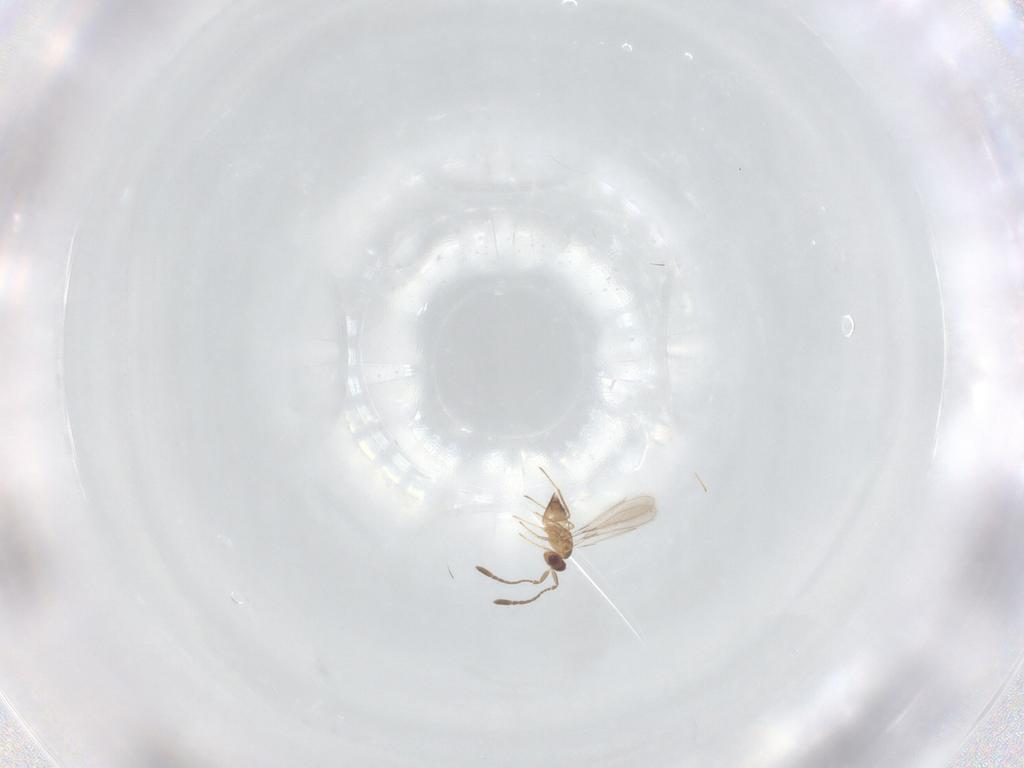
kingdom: Animalia
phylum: Arthropoda
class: Insecta
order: Hymenoptera
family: Mymaridae
